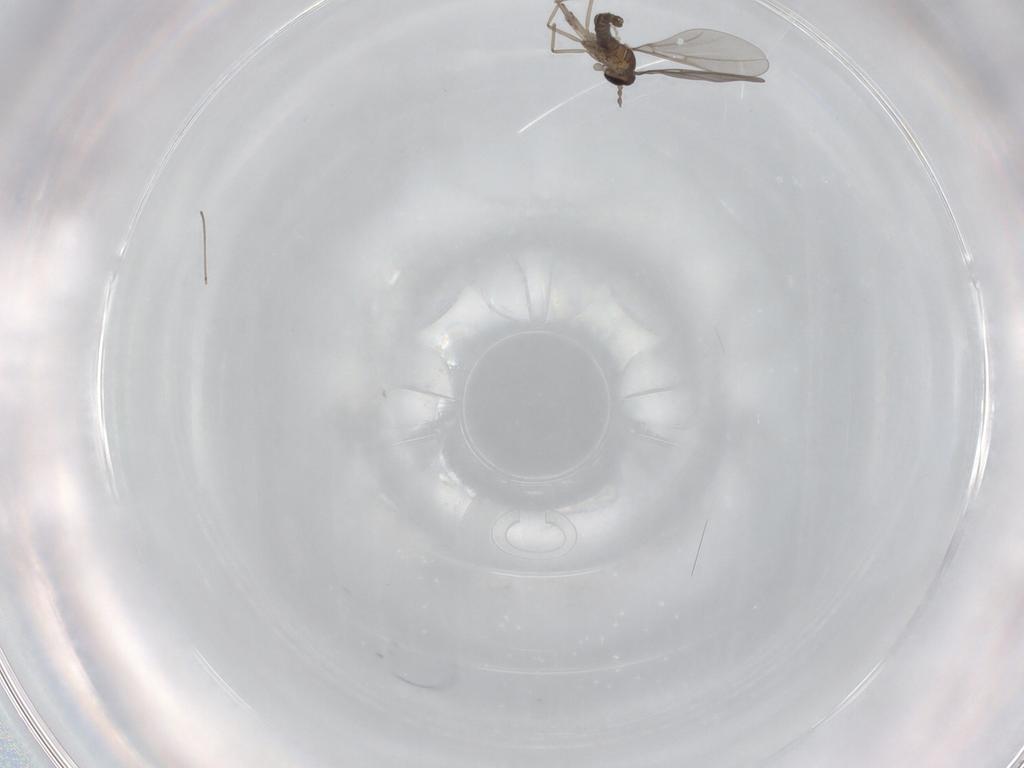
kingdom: Animalia
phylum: Arthropoda
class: Insecta
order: Diptera
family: Cecidomyiidae
